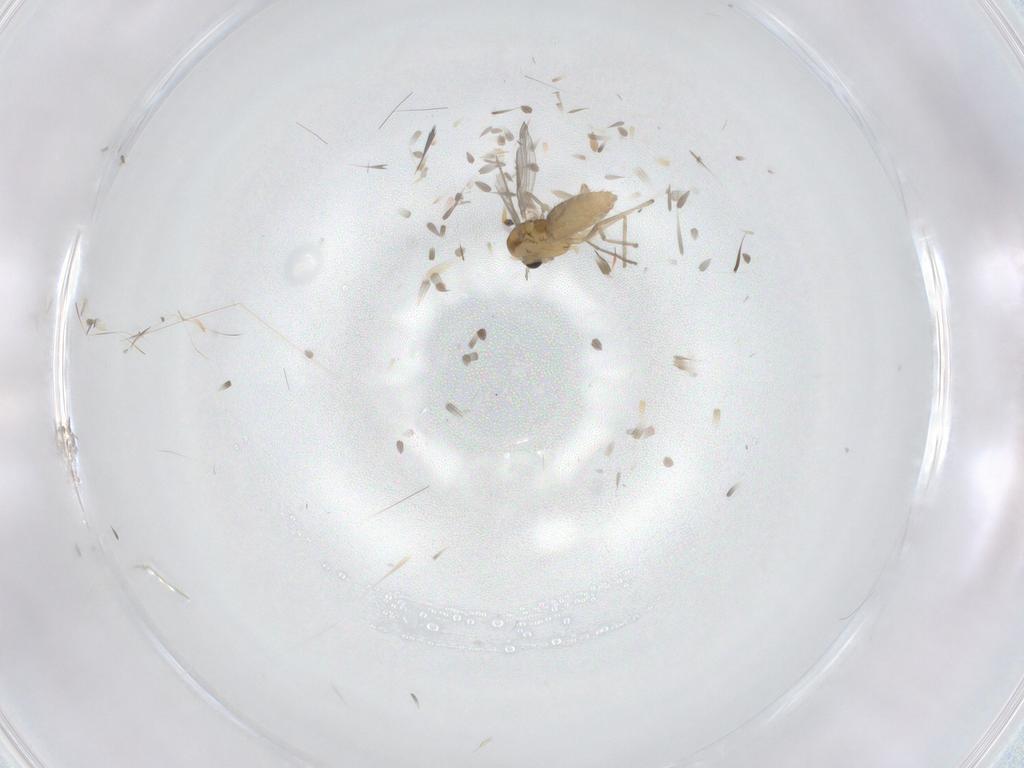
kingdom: Animalia
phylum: Arthropoda
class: Insecta
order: Diptera
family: Chironomidae
